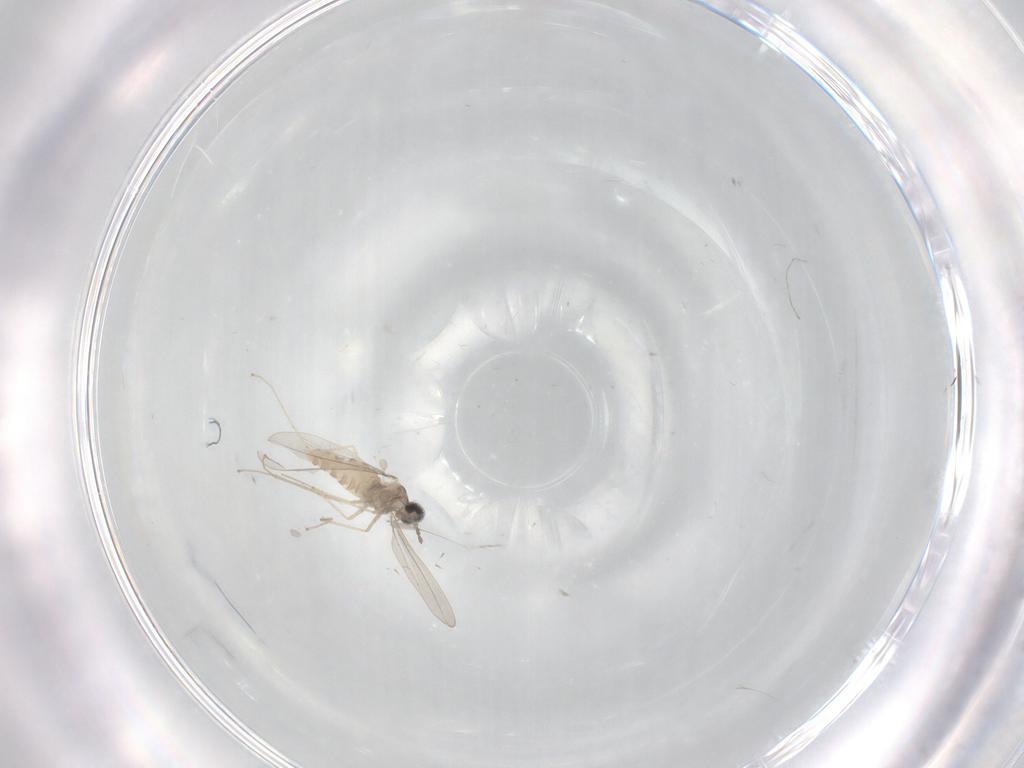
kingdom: Animalia
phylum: Arthropoda
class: Insecta
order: Diptera
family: Cecidomyiidae
